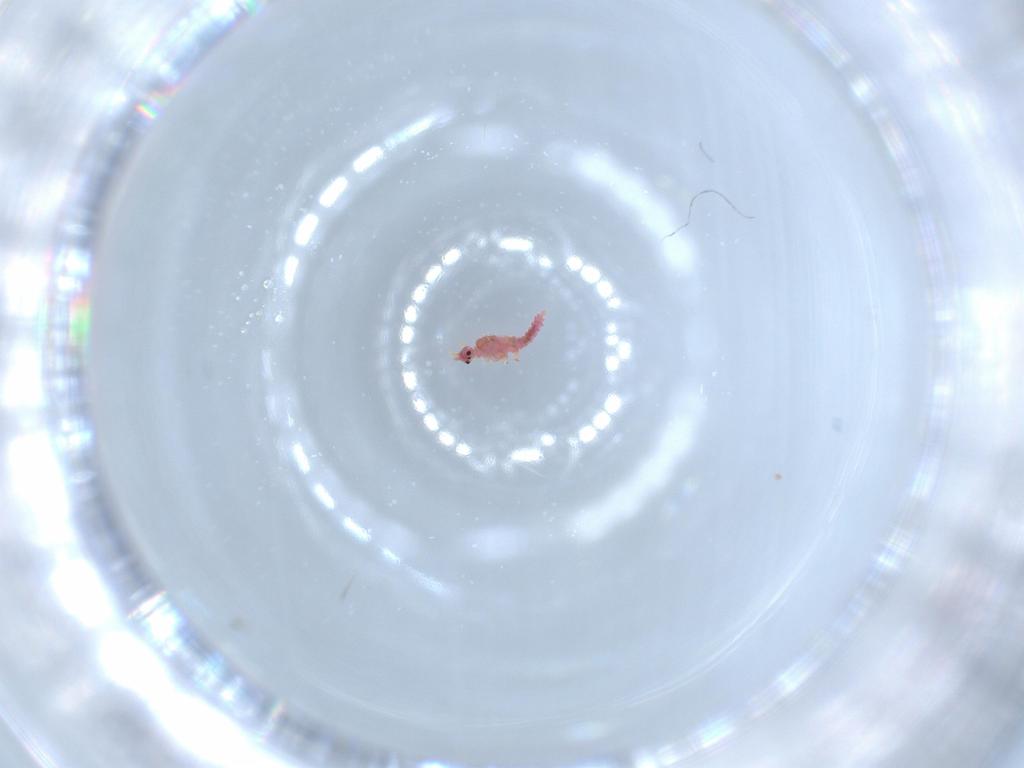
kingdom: Animalia
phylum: Arthropoda
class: Insecta
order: Hemiptera
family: Pseudococcidae
